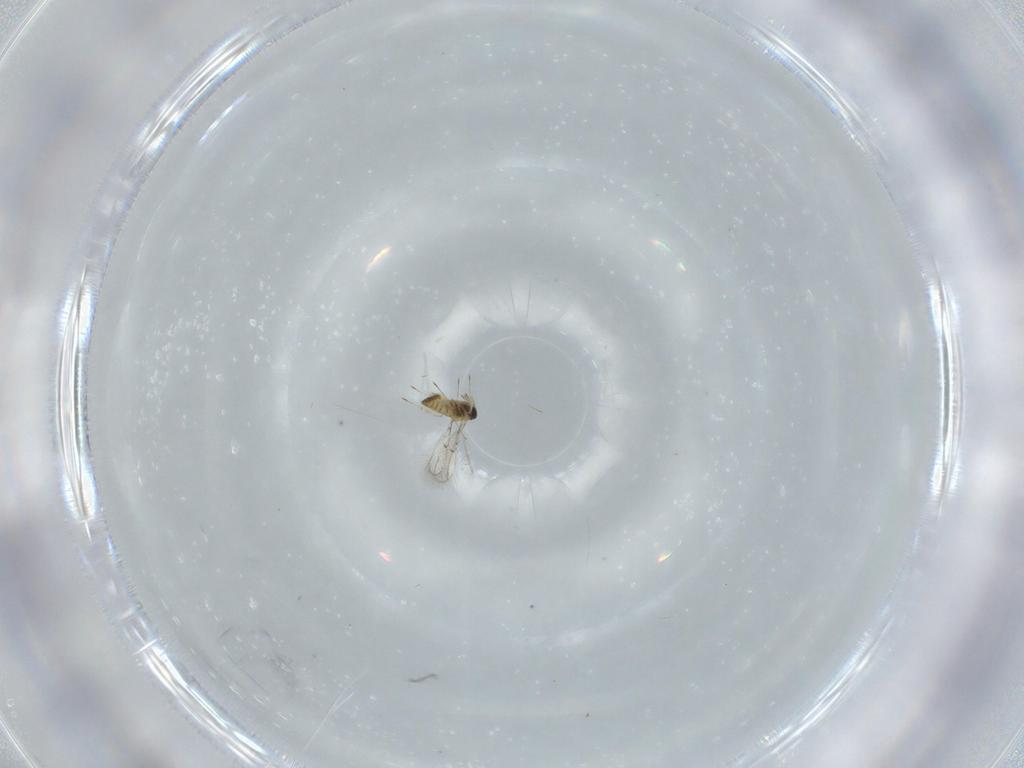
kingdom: Animalia
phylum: Arthropoda
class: Insecta
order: Hymenoptera
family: Trichogrammatidae
